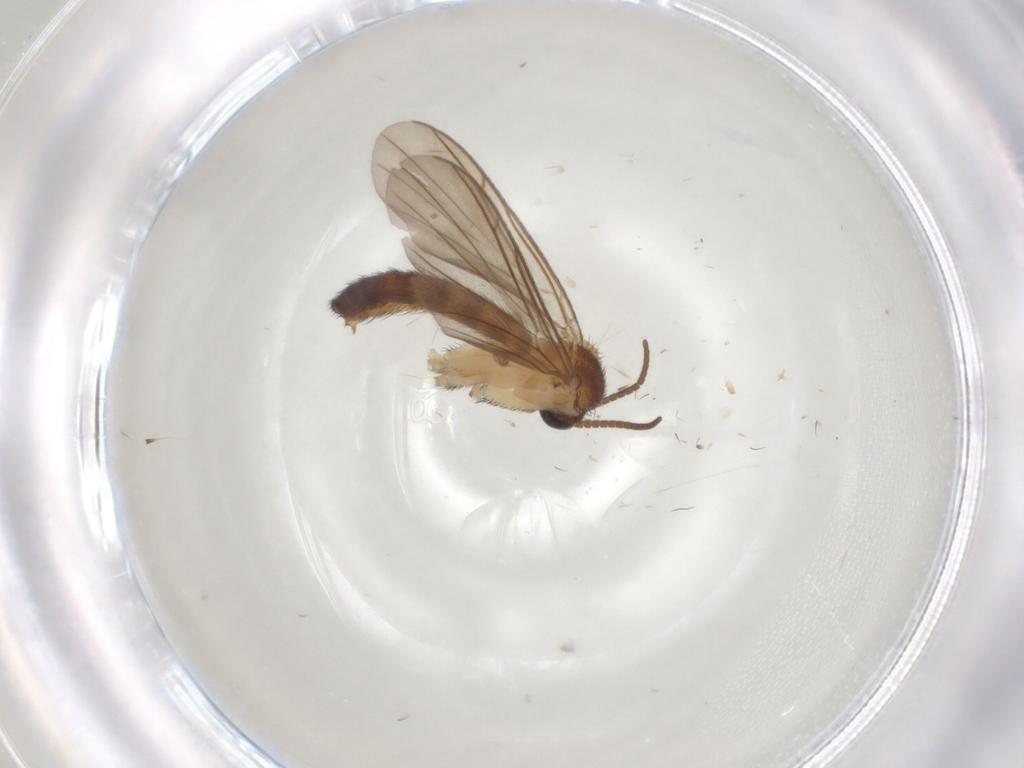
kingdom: Animalia
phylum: Arthropoda
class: Insecta
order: Diptera
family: Keroplatidae
